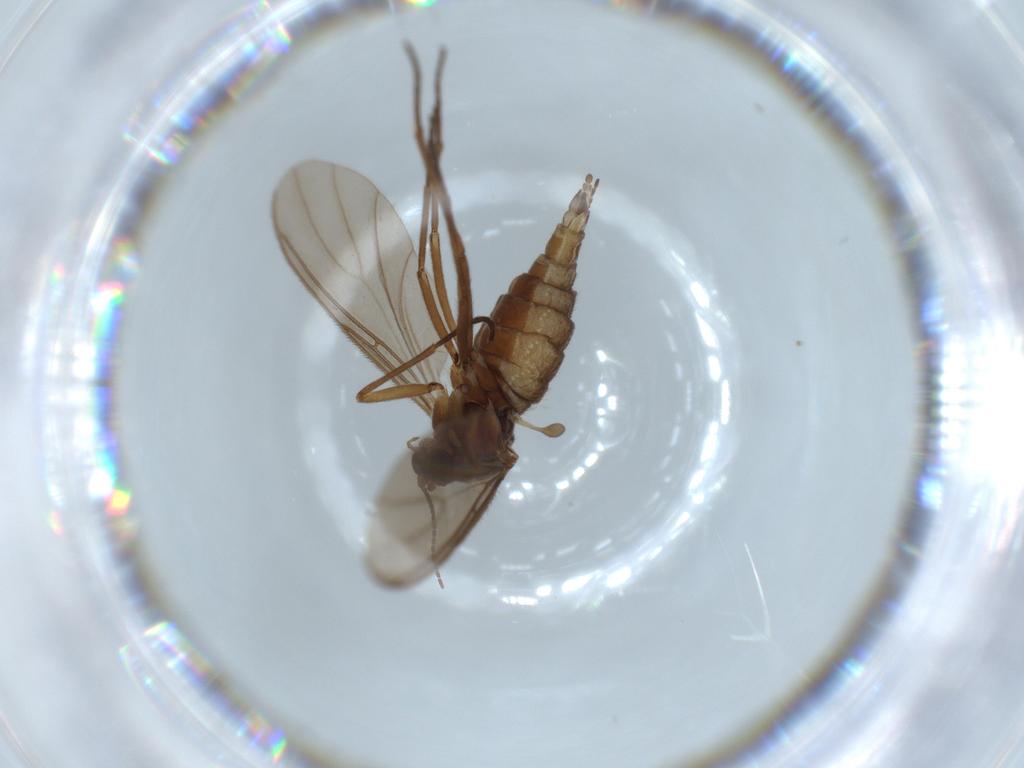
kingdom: Animalia
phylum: Arthropoda
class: Insecta
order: Diptera
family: Sciaridae
